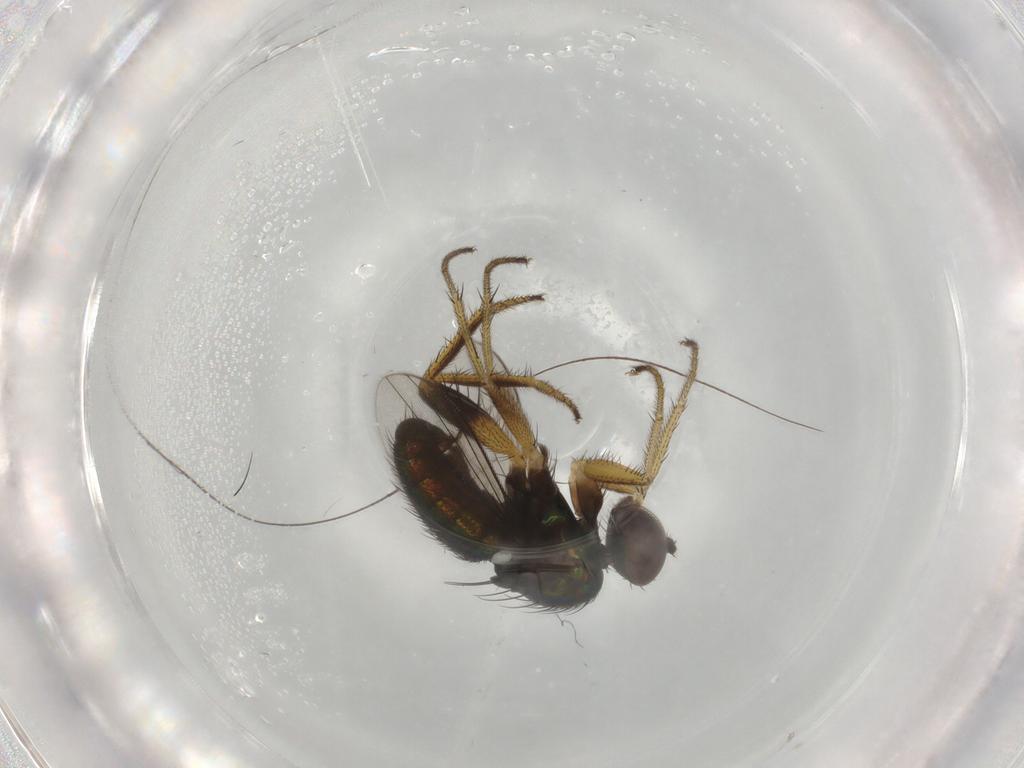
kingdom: Animalia
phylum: Arthropoda
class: Insecta
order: Diptera
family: Dolichopodidae
